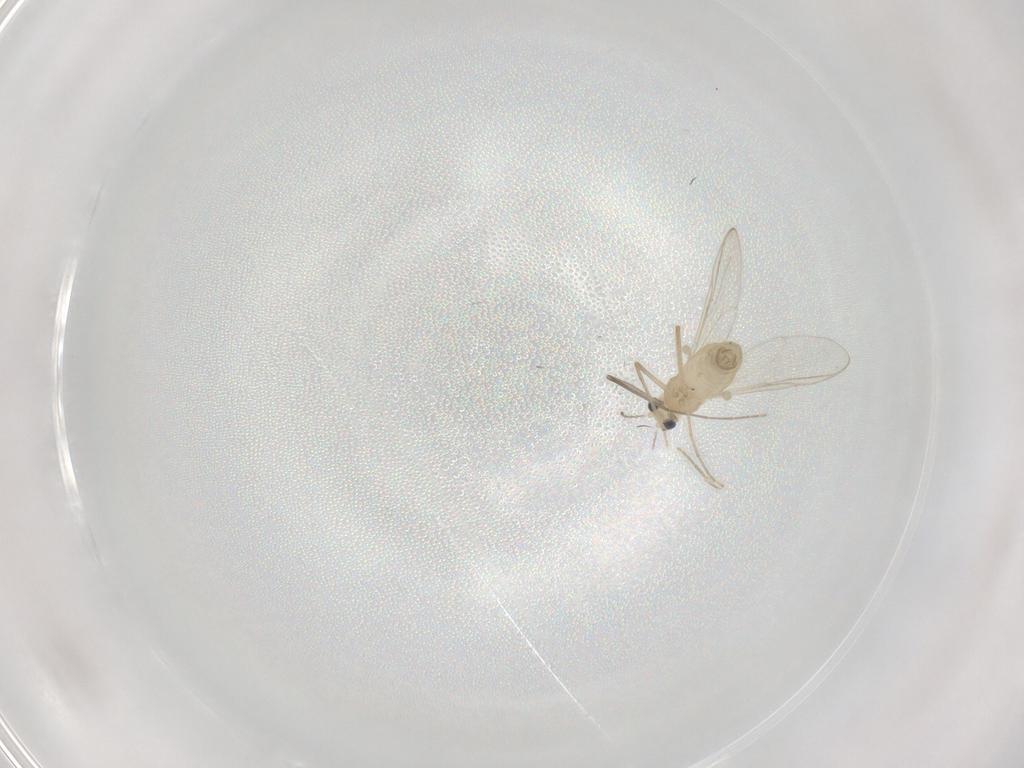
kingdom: Animalia
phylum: Arthropoda
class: Insecta
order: Diptera
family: Chironomidae
